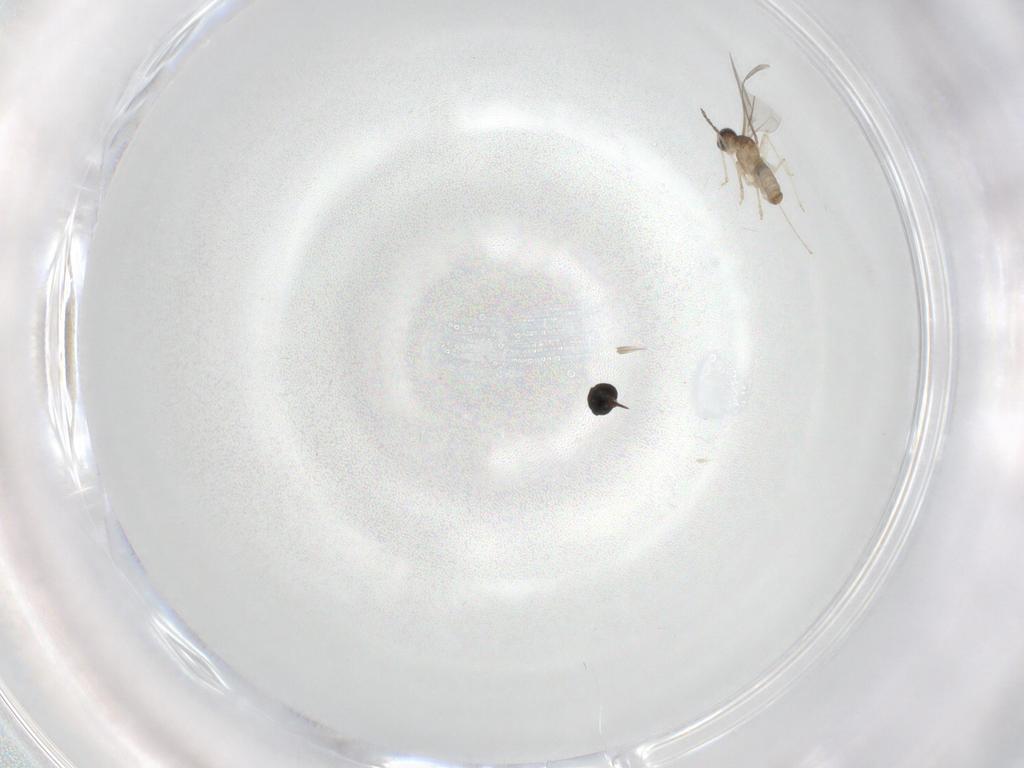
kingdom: Animalia
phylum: Arthropoda
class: Insecta
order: Diptera
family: Cecidomyiidae
